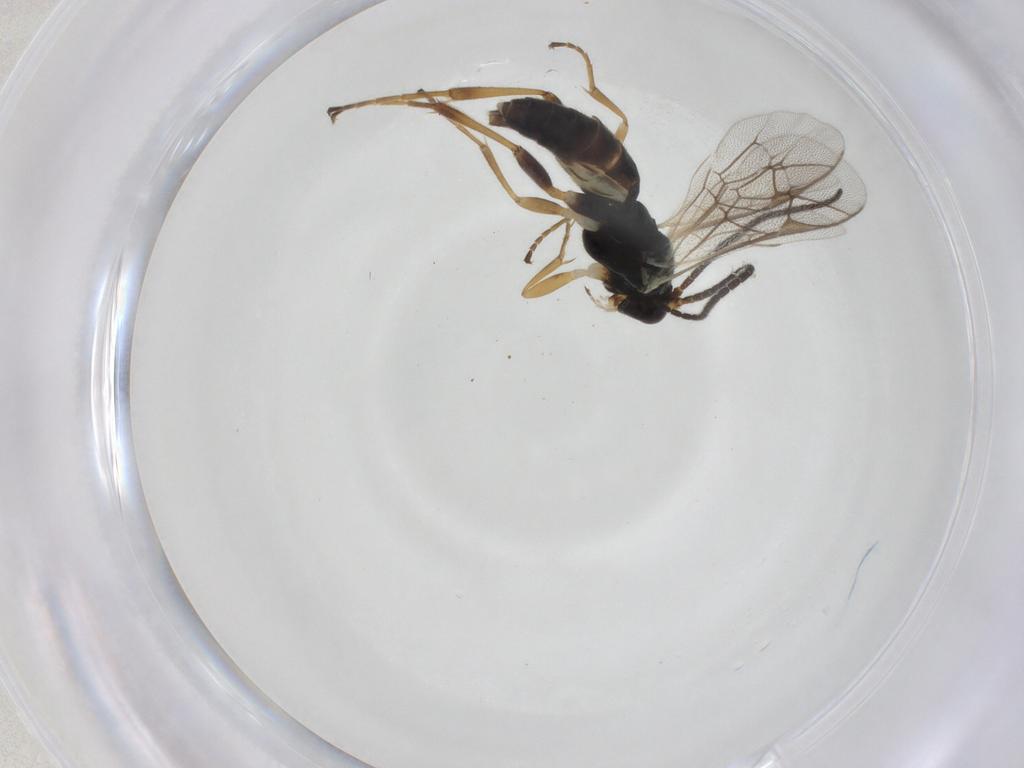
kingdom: Animalia
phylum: Arthropoda
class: Insecta
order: Hymenoptera
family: Ichneumonidae
